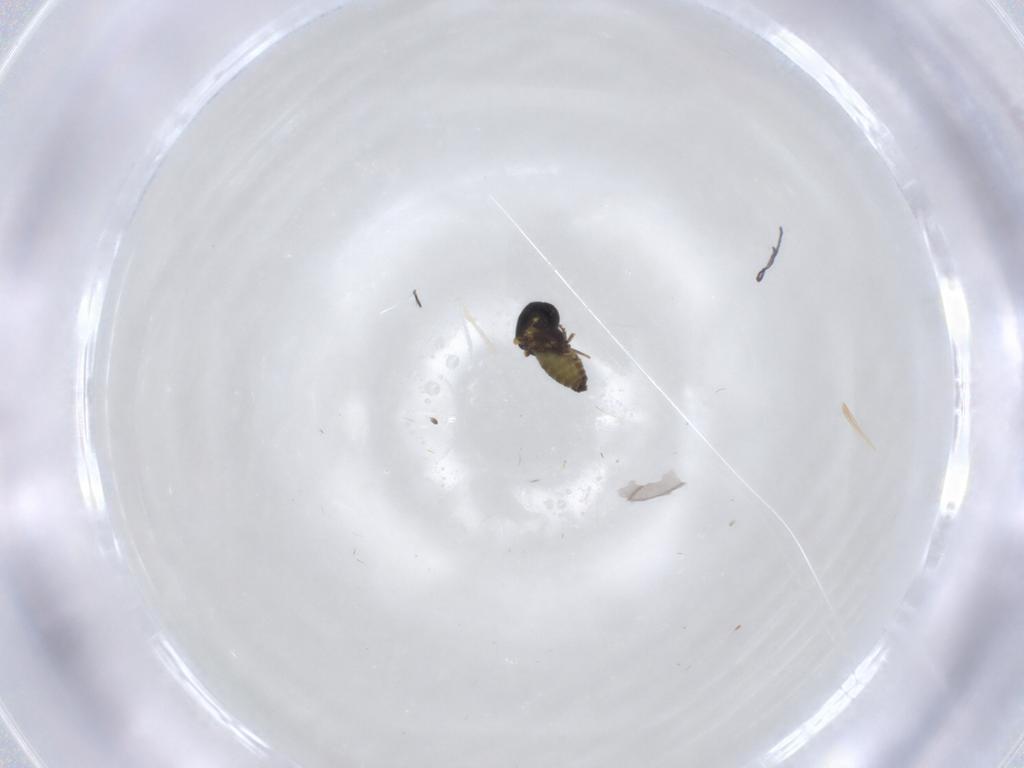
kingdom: Animalia
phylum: Arthropoda
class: Insecta
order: Diptera
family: Ceratopogonidae
